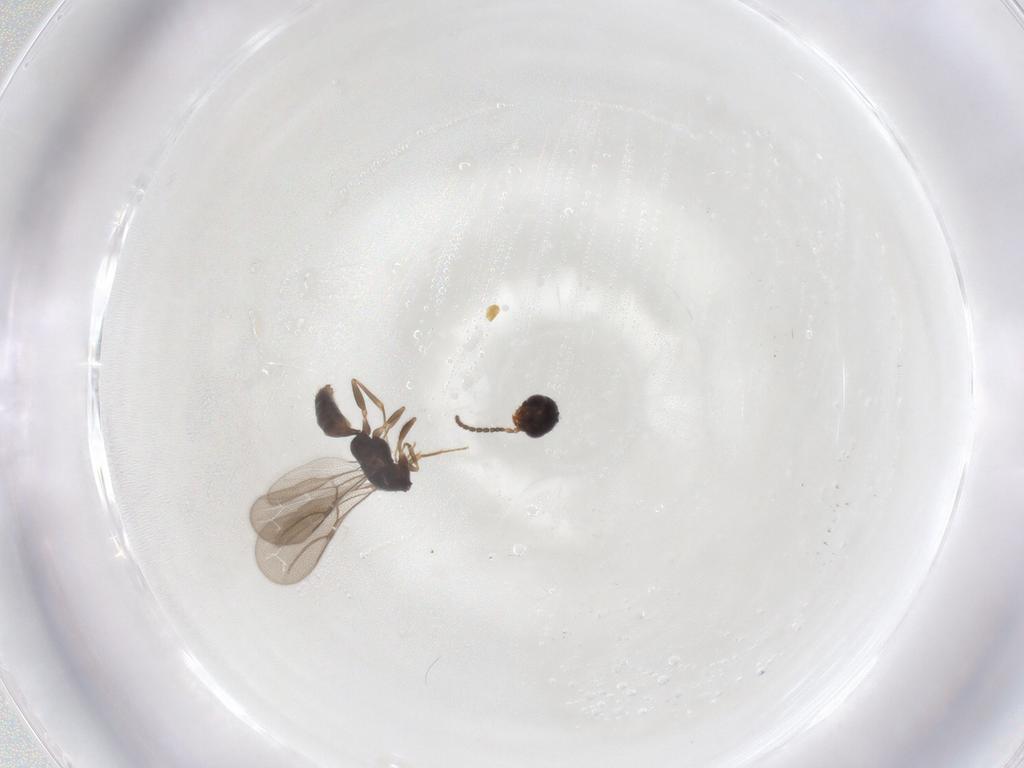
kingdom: Animalia
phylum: Arthropoda
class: Insecta
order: Hymenoptera
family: Bethylidae
